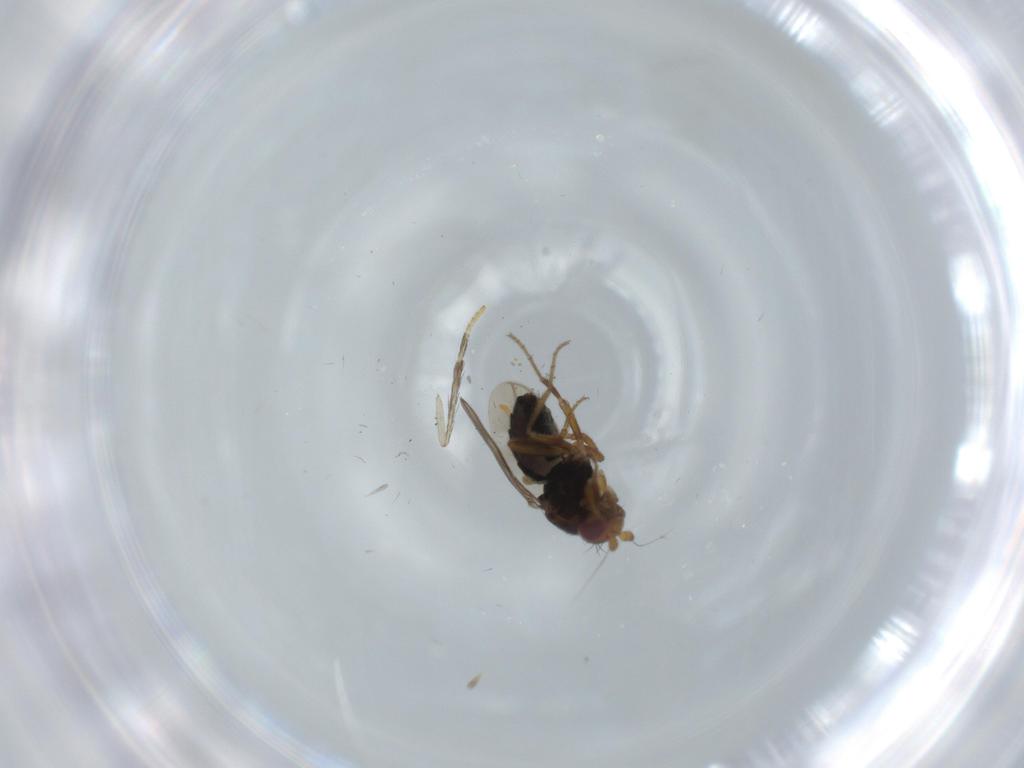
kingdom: Animalia
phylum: Arthropoda
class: Insecta
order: Diptera
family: Sphaeroceridae
